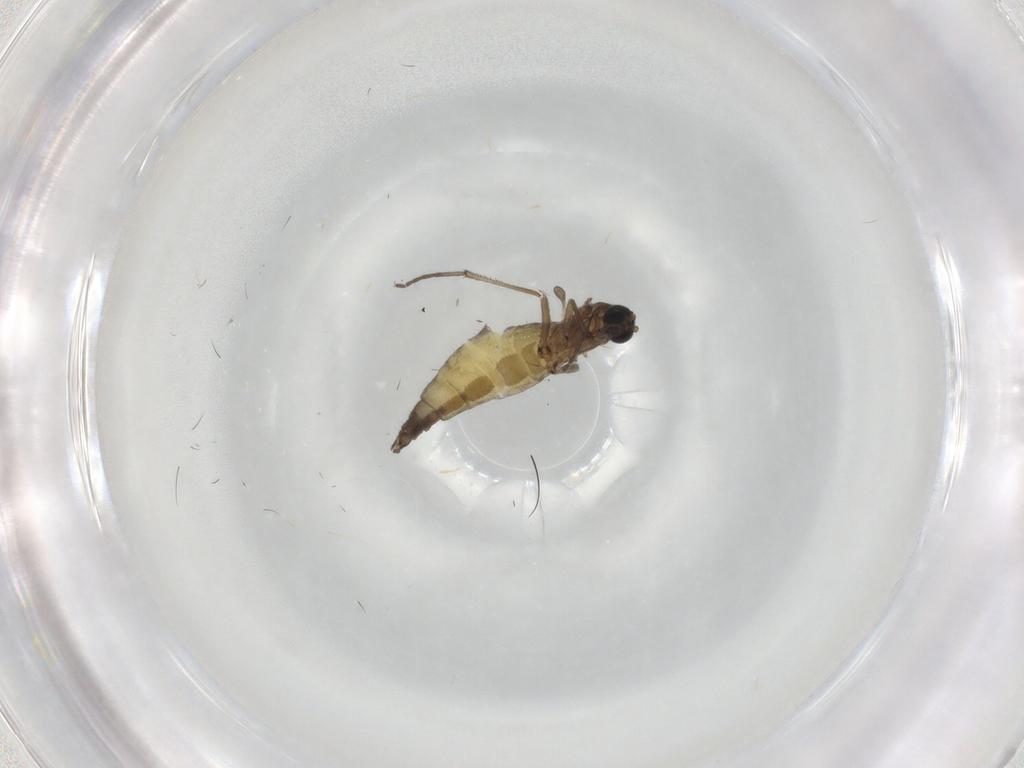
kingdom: Animalia
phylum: Arthropoda
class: Insecta
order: Diptera
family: Sciaridae
